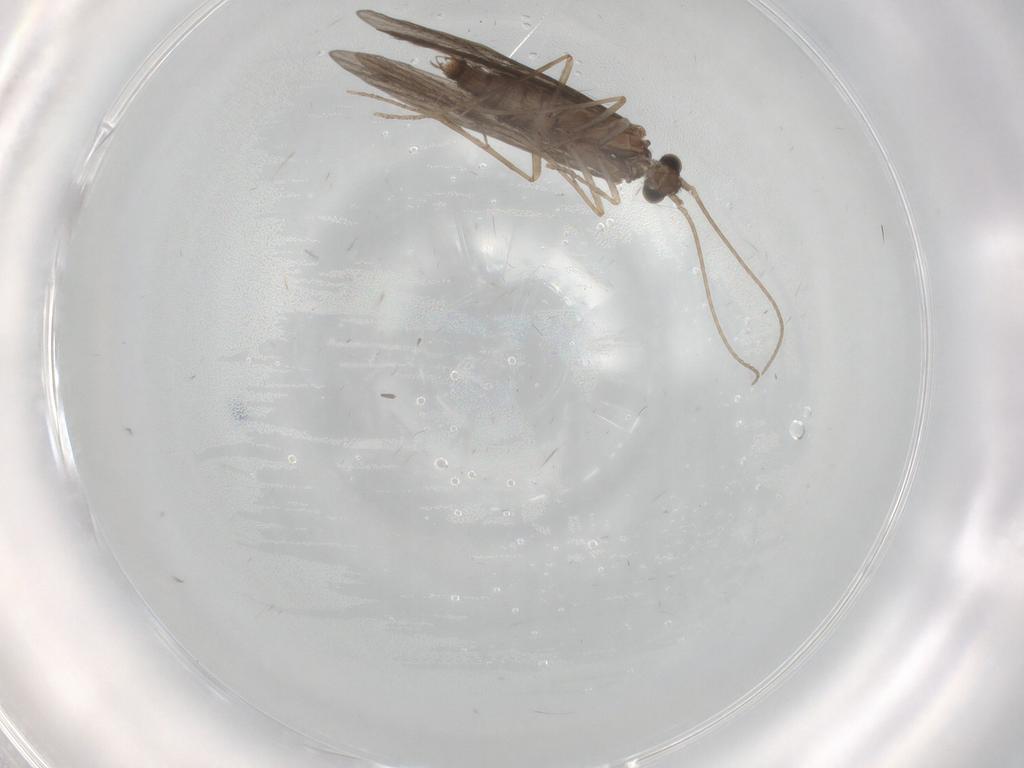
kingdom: Animalia
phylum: Arthropoda
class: Insecta
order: Trichoptera
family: Hydroptilidae
